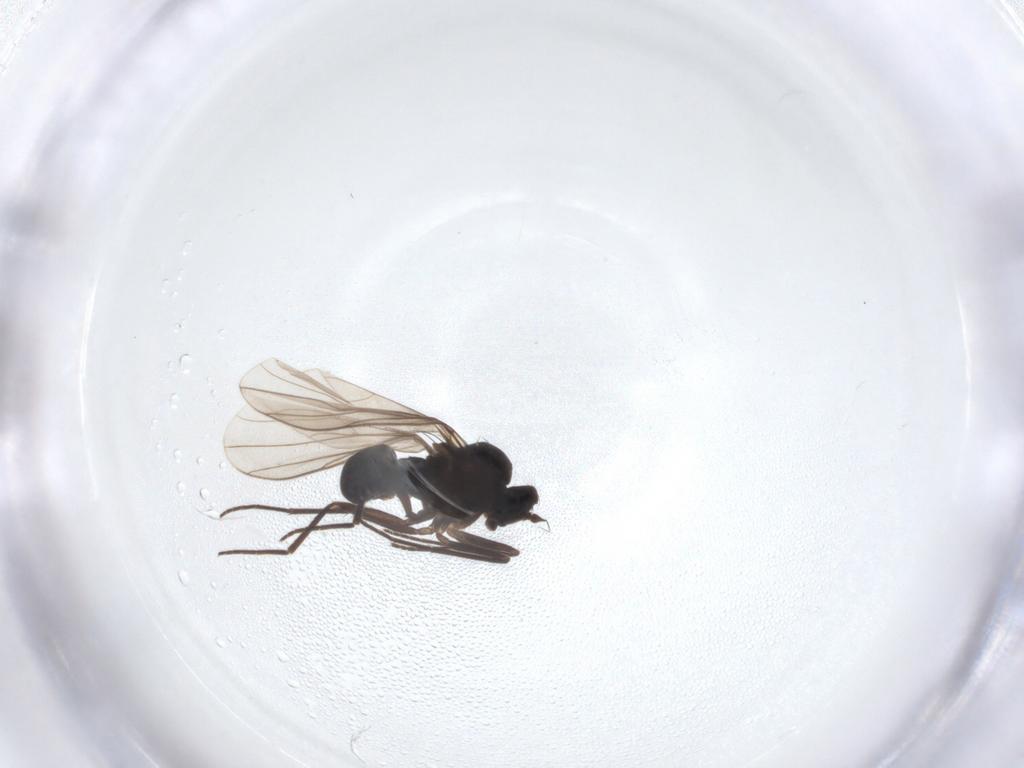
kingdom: Animalia
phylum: Arthropoda
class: Insecta
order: Diptera
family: Dolichopodidae
